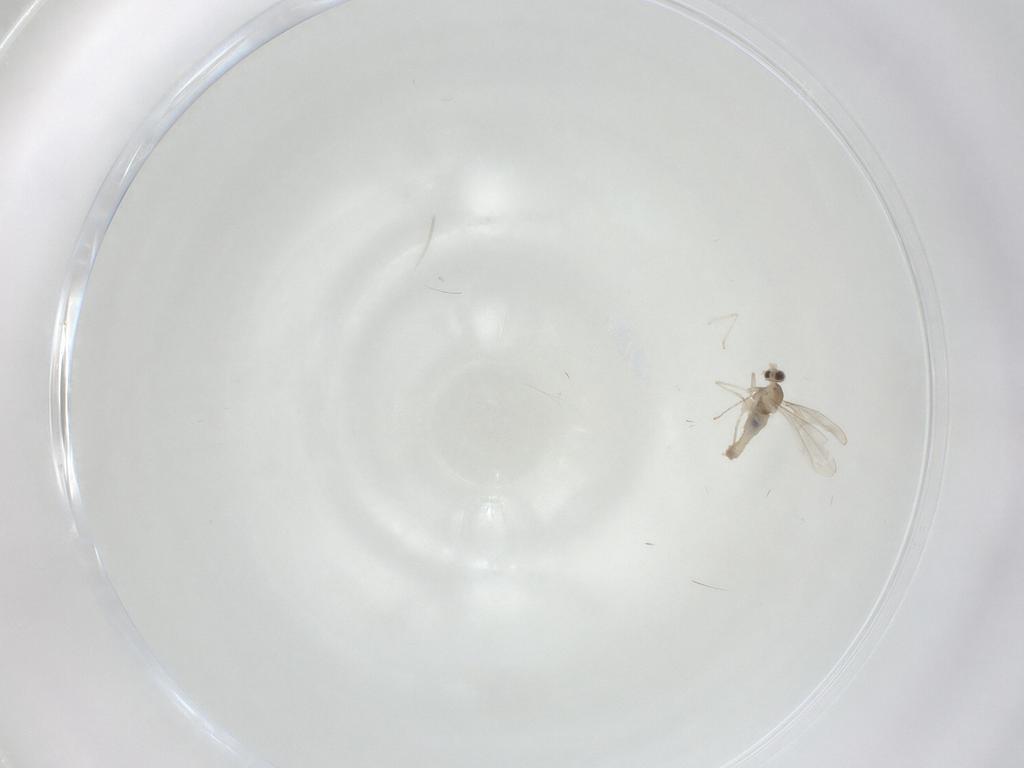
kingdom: Animalia
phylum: Arthropoda
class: Insecta
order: Diptera
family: Cecidomyiidae
